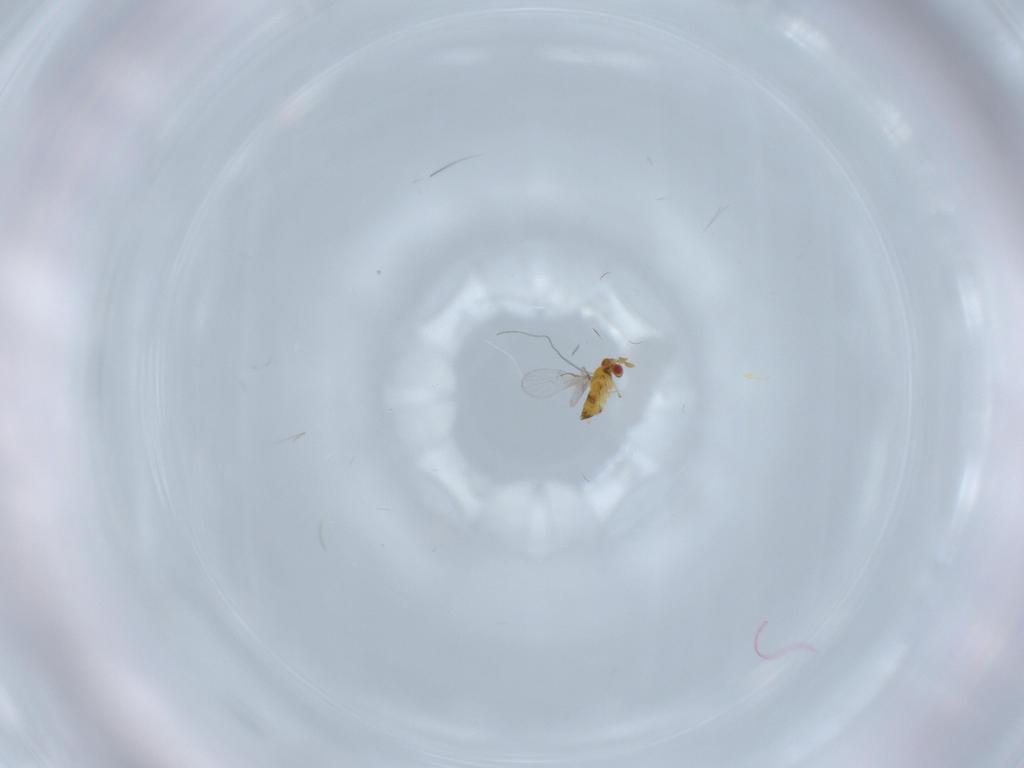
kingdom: Animalia
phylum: Arthropoda
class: Insecta
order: Hymenoptera
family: Trichogrammatidae
